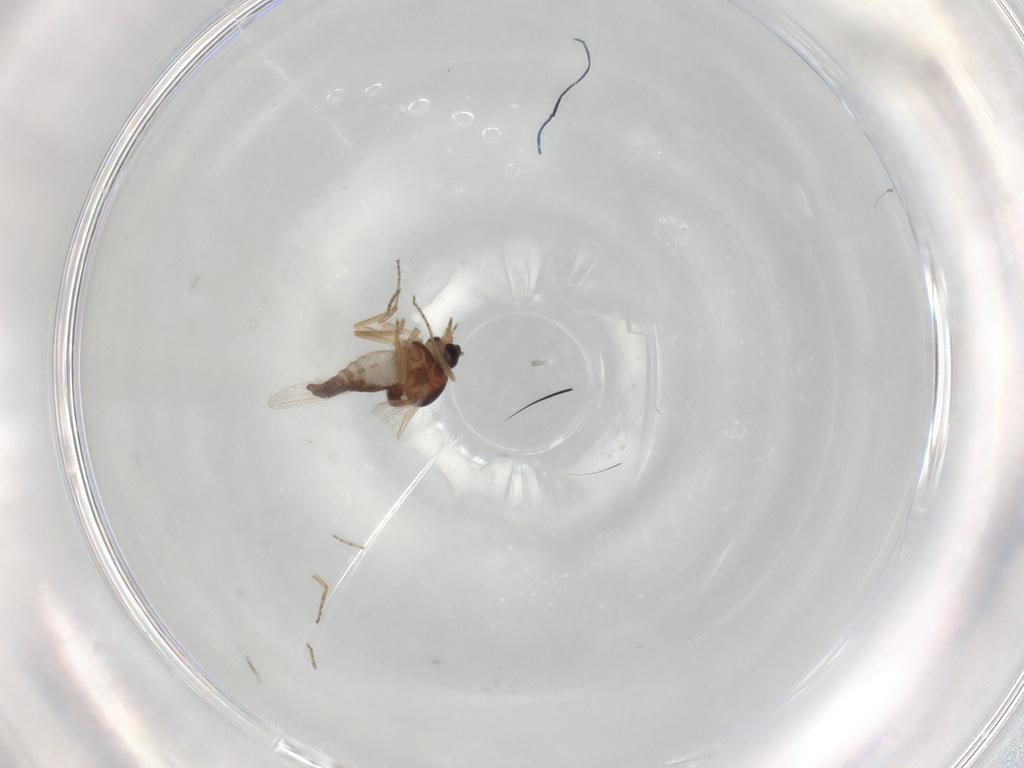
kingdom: Animalia
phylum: Arthropoda
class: Insecta
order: Diptera
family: Ceratopogonidae
